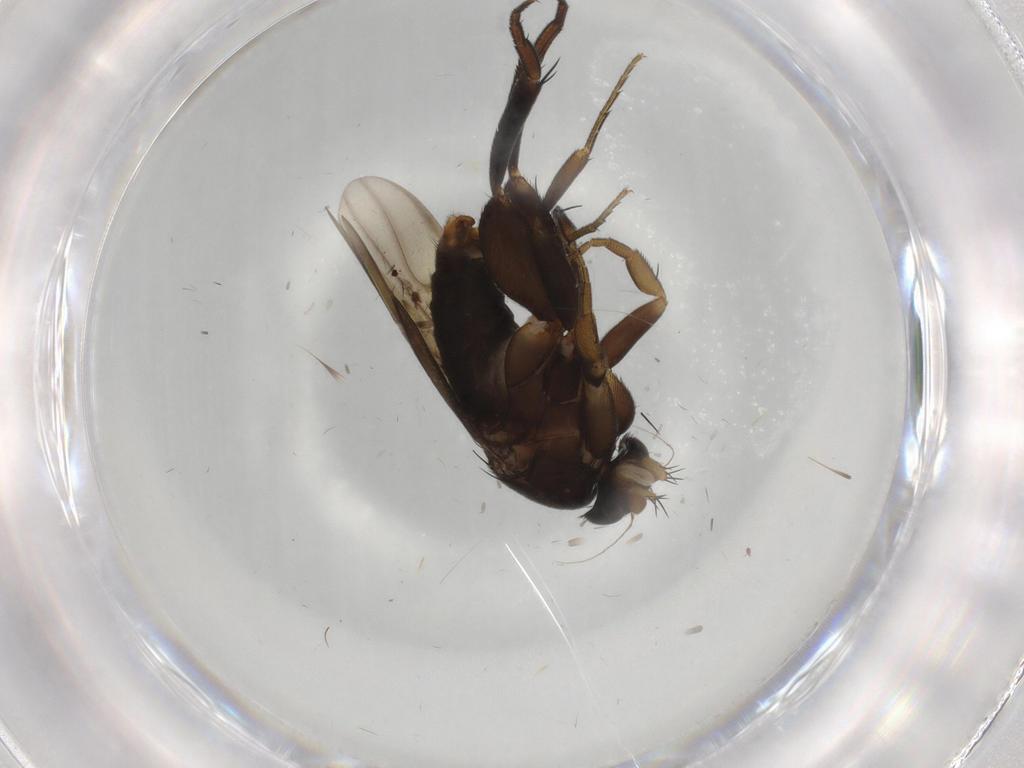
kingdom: Animalia
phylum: Arthropoda
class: Insecta
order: Diptera
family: Phoridae
